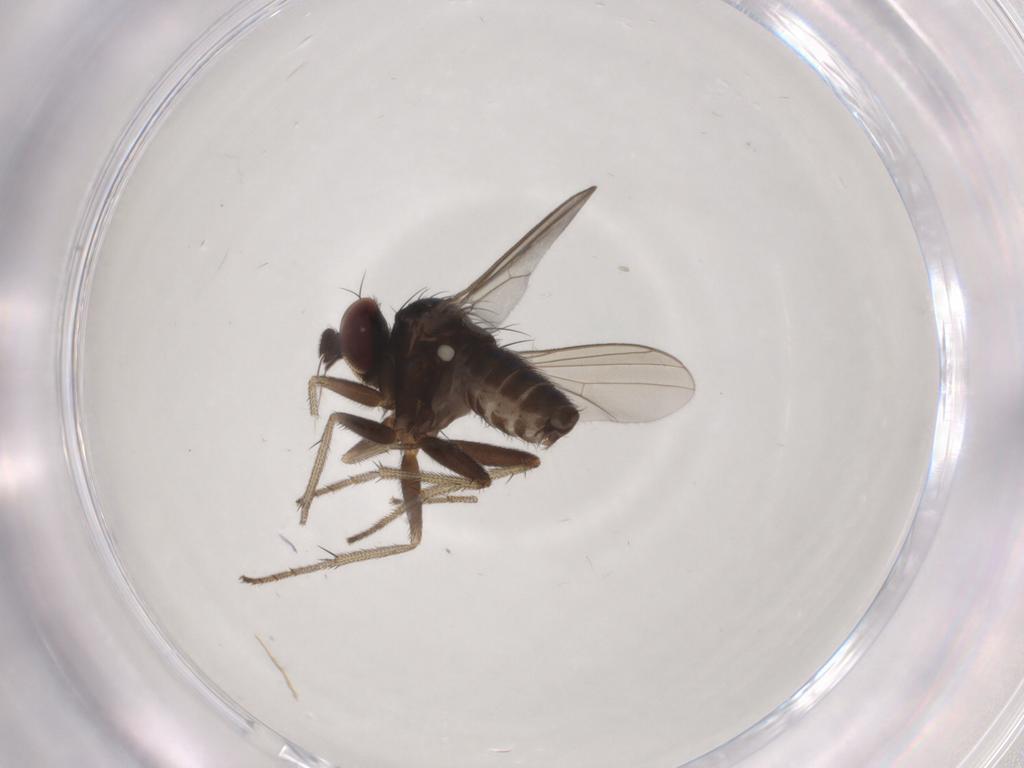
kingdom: Animalia
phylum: Arthropoda
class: Insecta
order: Diptera
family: Dolichopodidae
